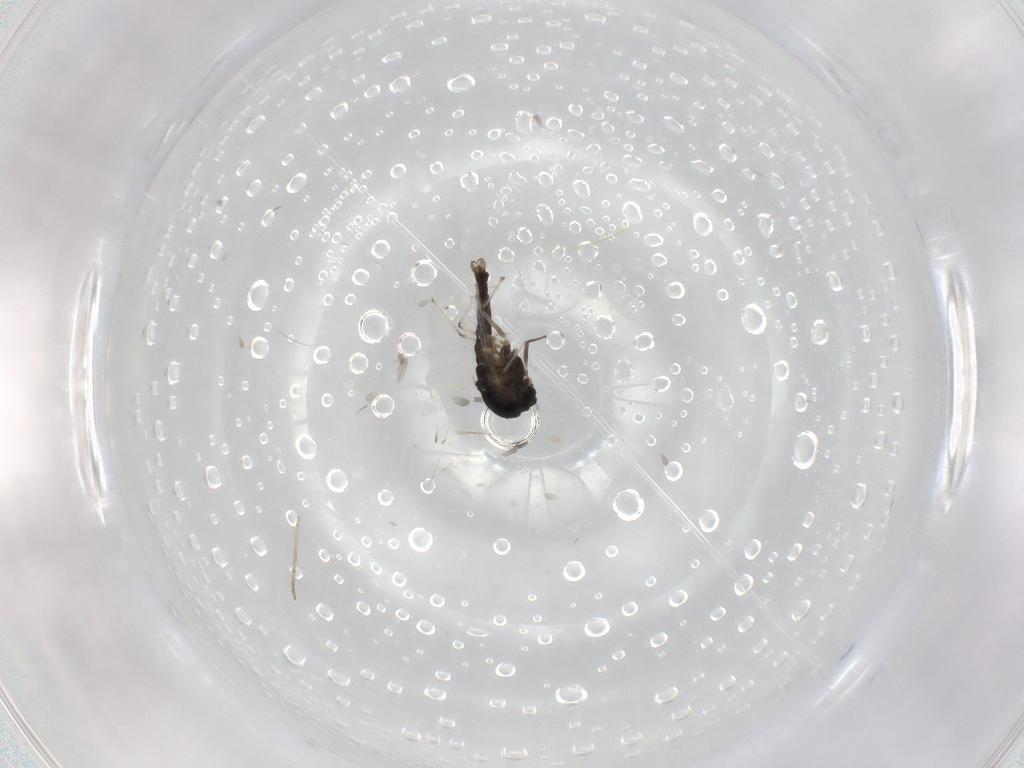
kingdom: Animalia
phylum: Arthropoda
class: Insecta
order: Diptera
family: Chironomidae
